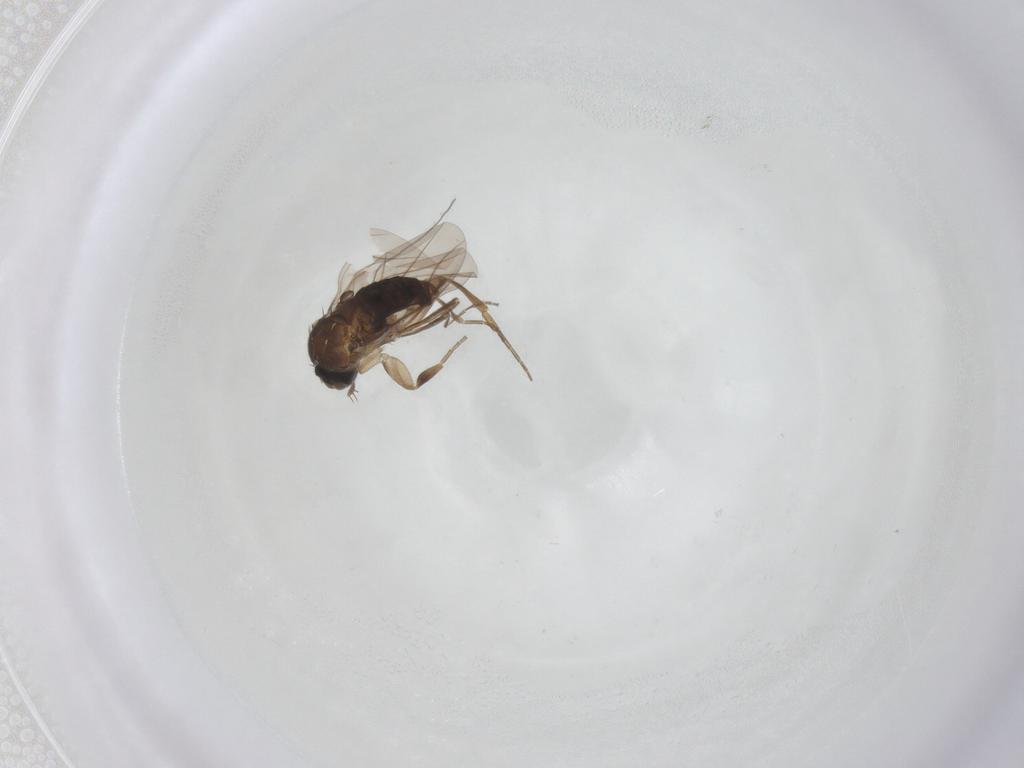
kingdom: Animalia
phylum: Arthropoda
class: Insecta
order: Diptera
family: Phoridae
